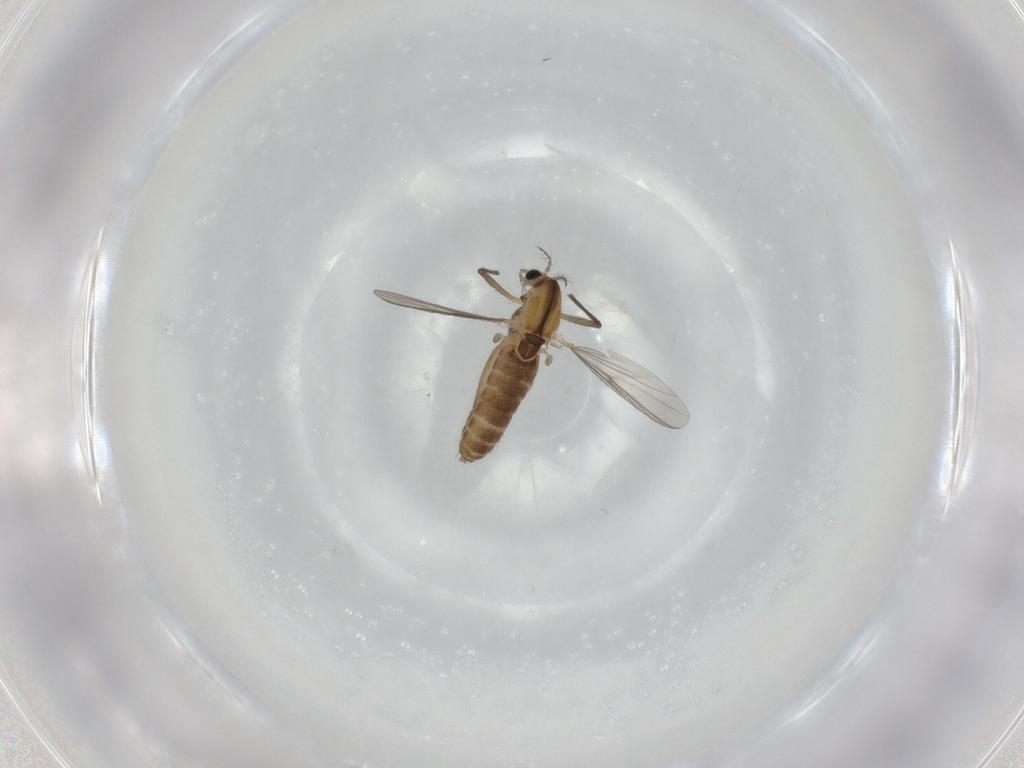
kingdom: Animalia
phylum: Arthropoda
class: Insecta
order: Diptera
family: Chironomidae
